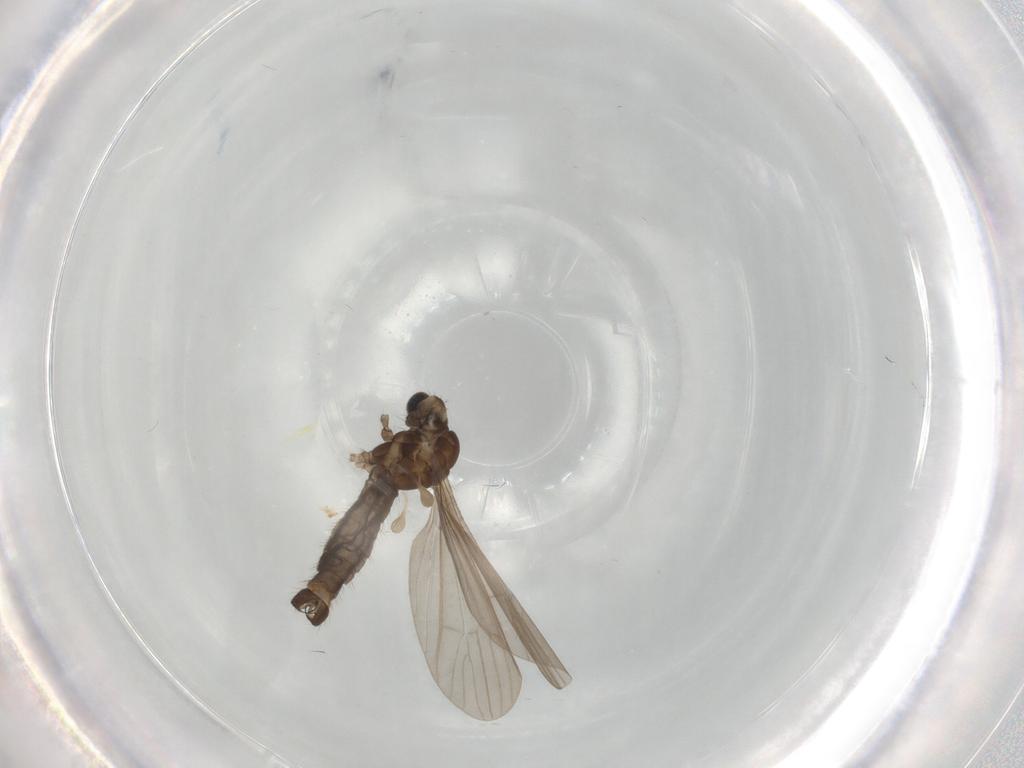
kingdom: Animalia
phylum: Arthropoda
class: Insecta
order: Diptera
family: Limoniidae
